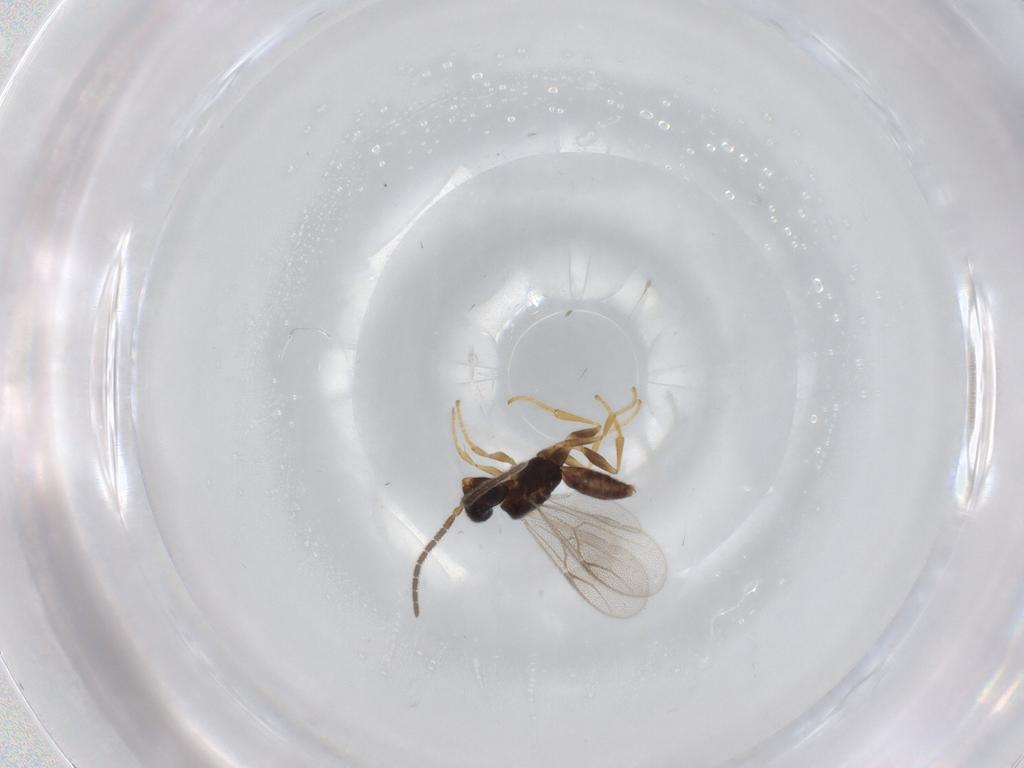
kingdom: Animalia
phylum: Arthropoda
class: Insecta
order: Hymenoptera
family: Dryinidae
